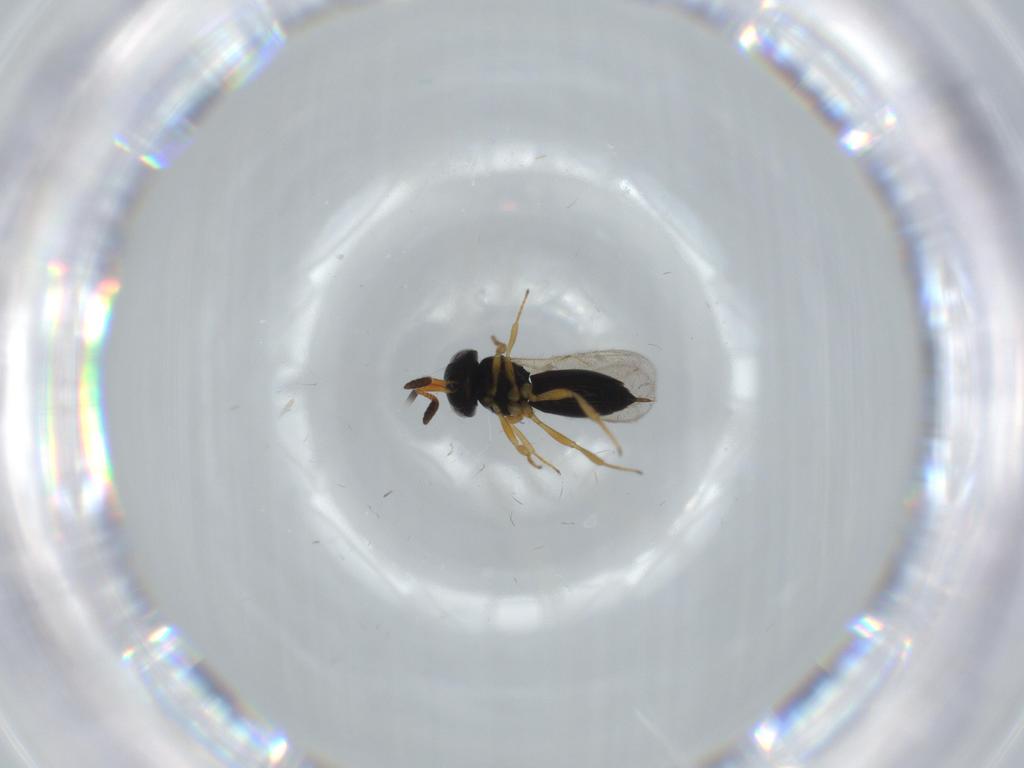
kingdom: Animalia
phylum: Arthropoda
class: Insecta
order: Hymenoptera
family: Scelionidae
